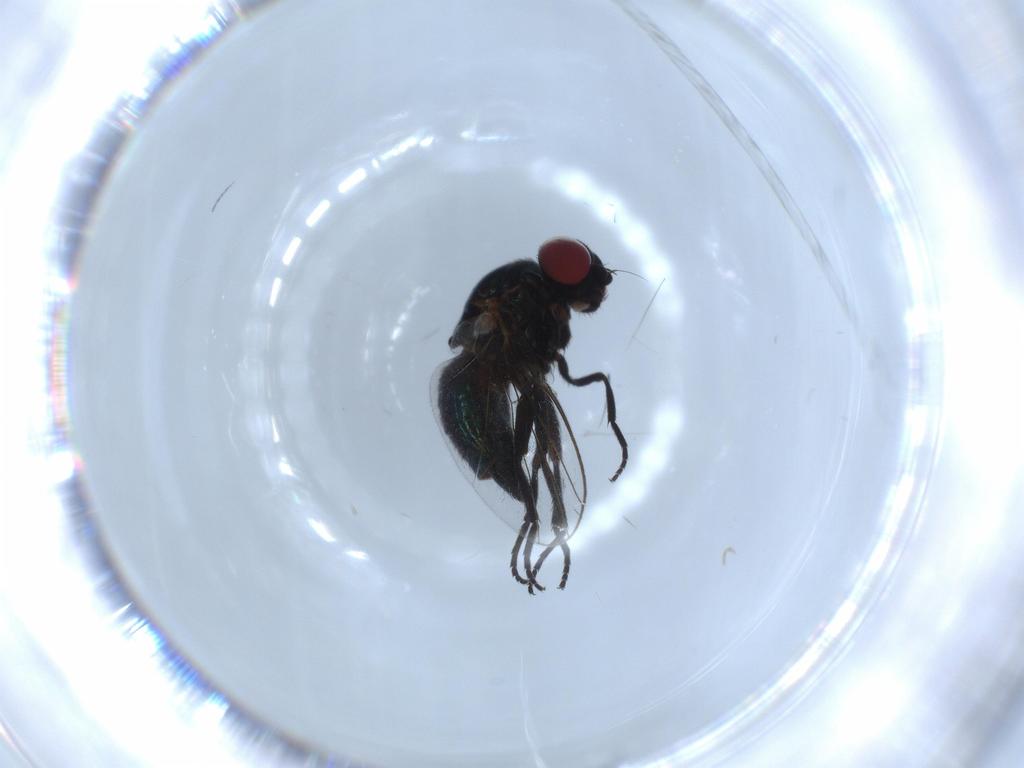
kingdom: Animalia
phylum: Arthropoda
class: Insecta
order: Diptera
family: Agromyzidae
